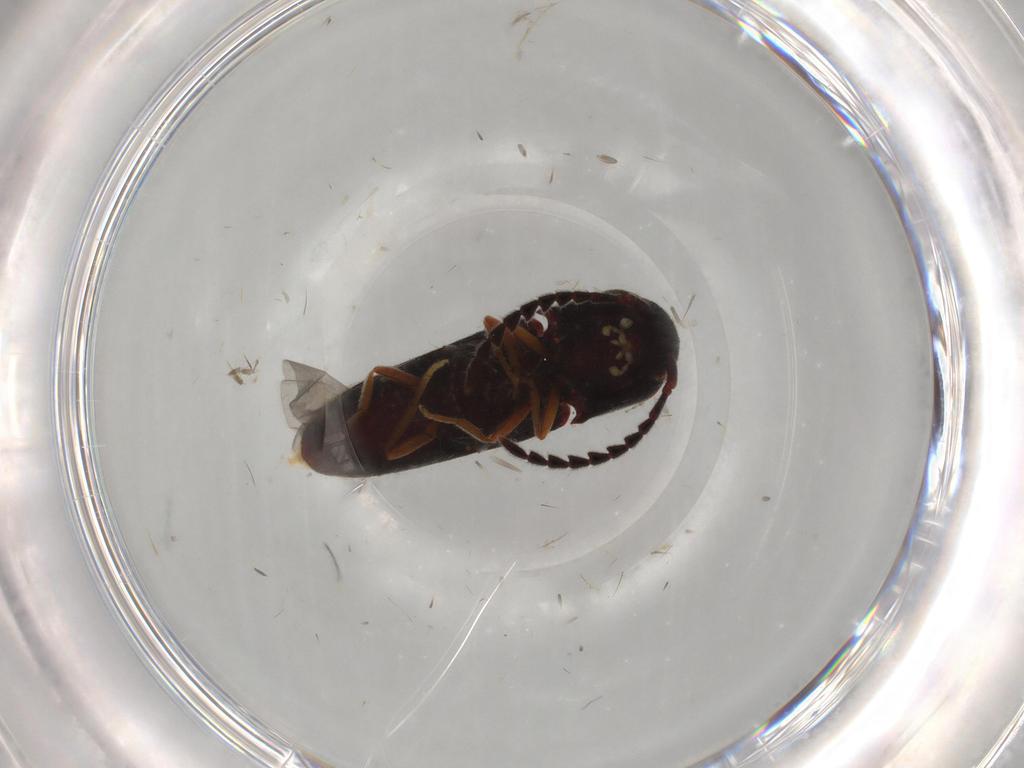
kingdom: Animalia
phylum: Arthropoda
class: Insecta
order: Coleoptera
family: Eucnemidae
